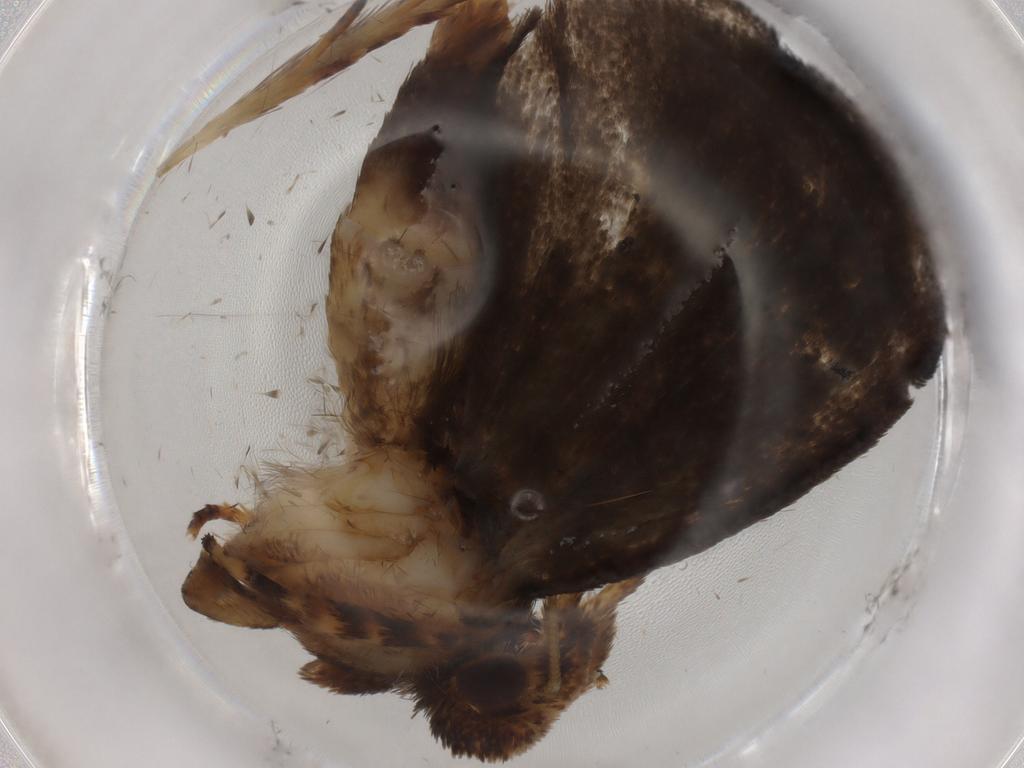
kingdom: Animalia
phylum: Arthropoda
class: Insecta
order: Lepidoptera
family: Tineidae
